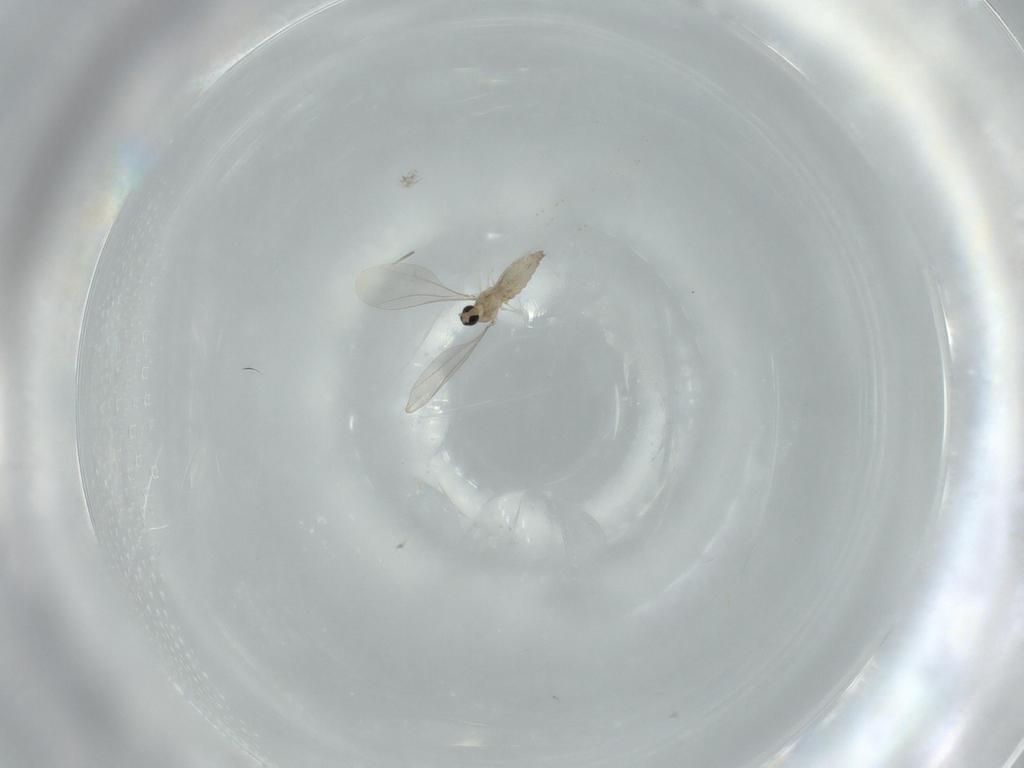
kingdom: Animalia
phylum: Arthropoda
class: Insecta
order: Diptera
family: Cecidomyiidae
